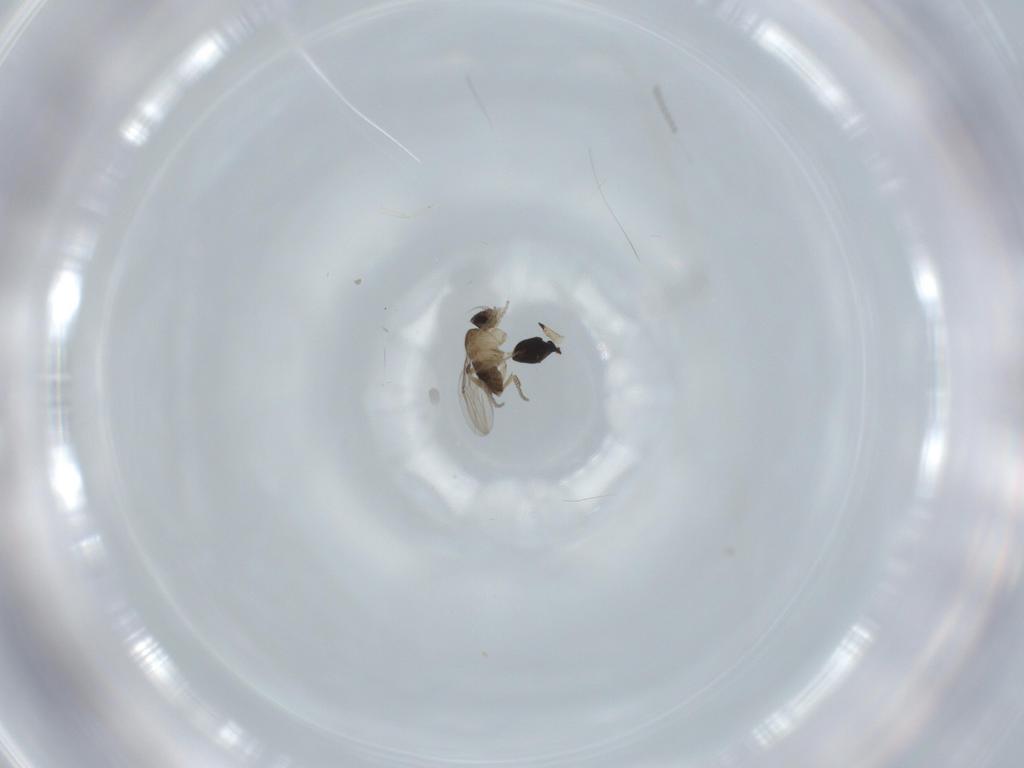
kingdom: Animalia
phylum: Arthropoda
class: Insecta
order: Diptera
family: Cecidomyiidae
